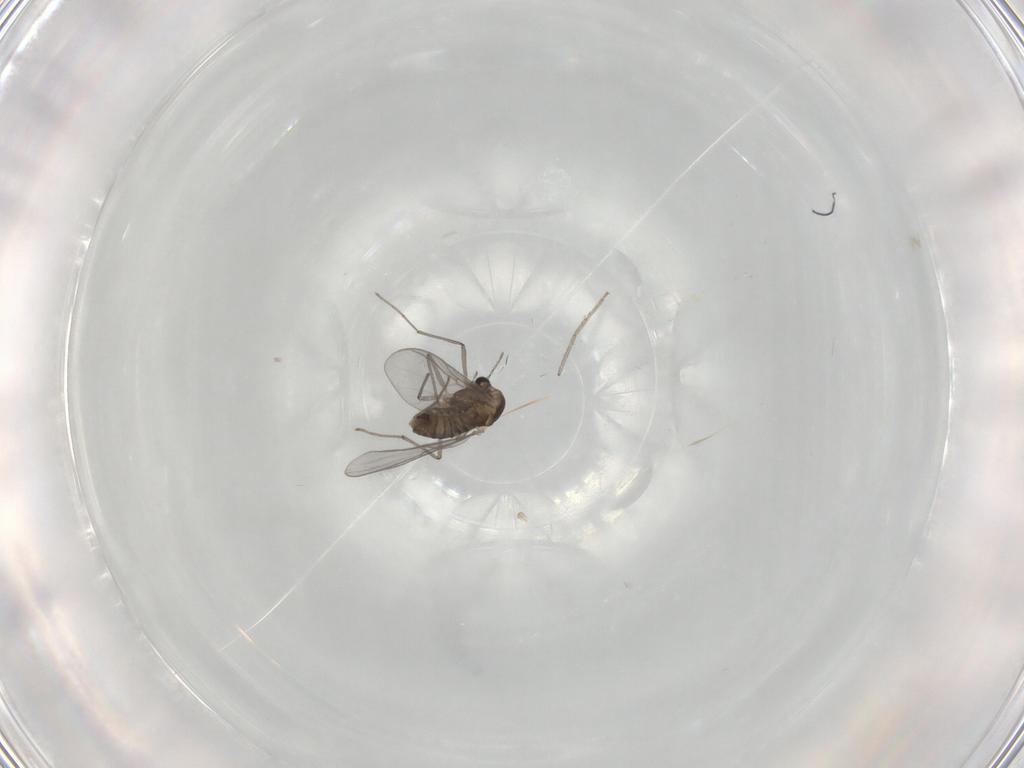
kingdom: Animalia
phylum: Arthropoda
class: Insecta
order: Diptera
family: Chironomidae
